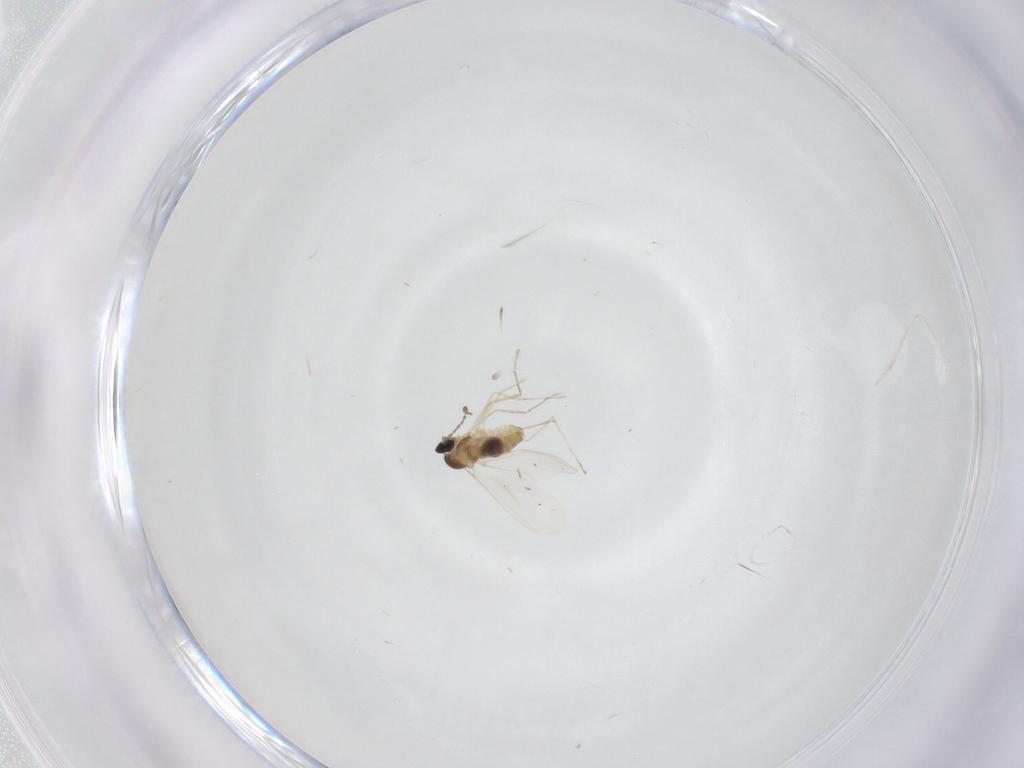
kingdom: Animalia
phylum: Arthropoda
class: Insecta
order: Diptera
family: Cecidomyiidae
